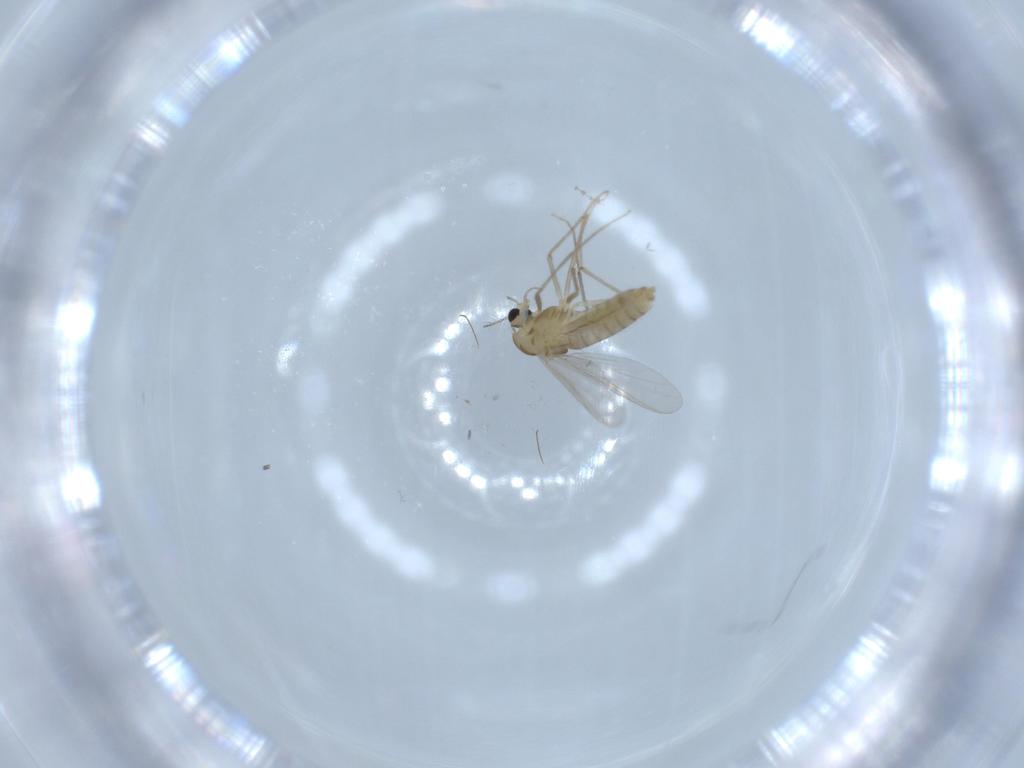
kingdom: Animalia
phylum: Arthropoda
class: Insecta
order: Diptera
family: Chironomidae
